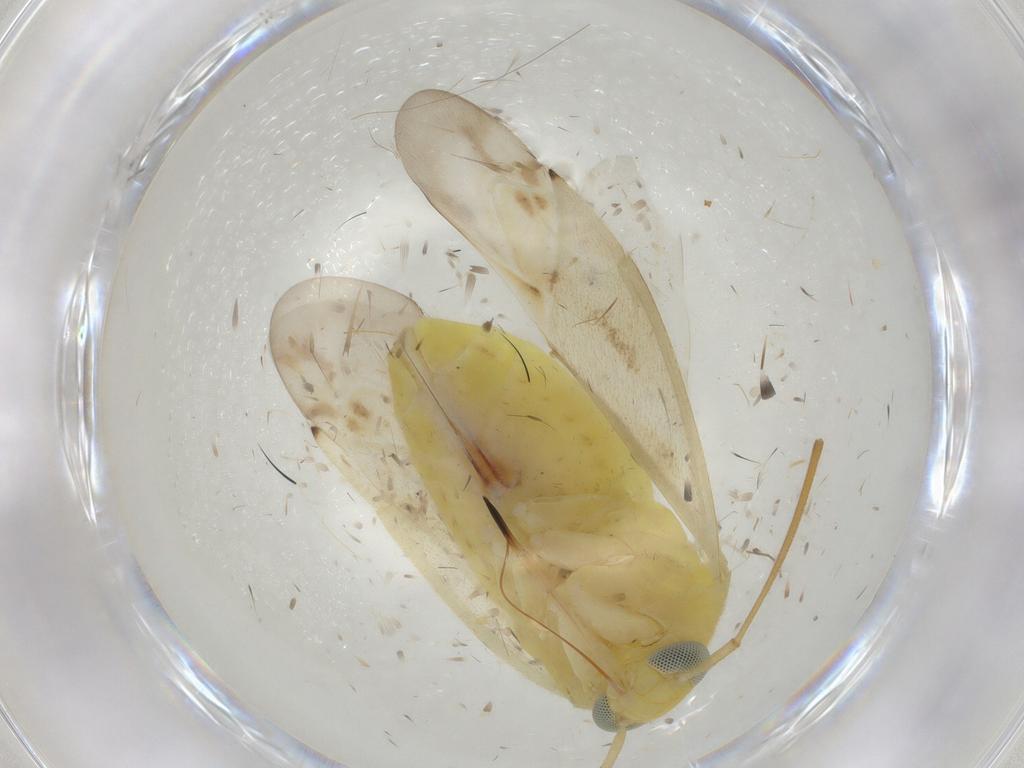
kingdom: Animalia
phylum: Arthropoda
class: Insecta
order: Hemiptera
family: Miridae
